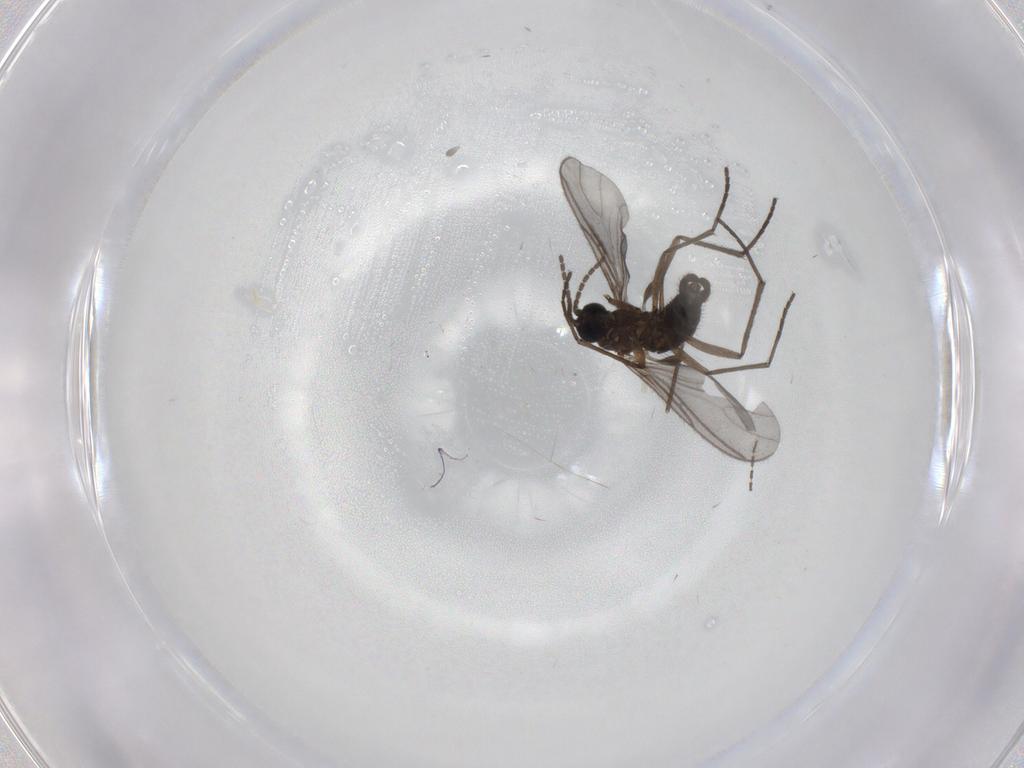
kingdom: Animalia
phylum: Arthropoda
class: Insecta
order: Diptera
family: Sciaridae
